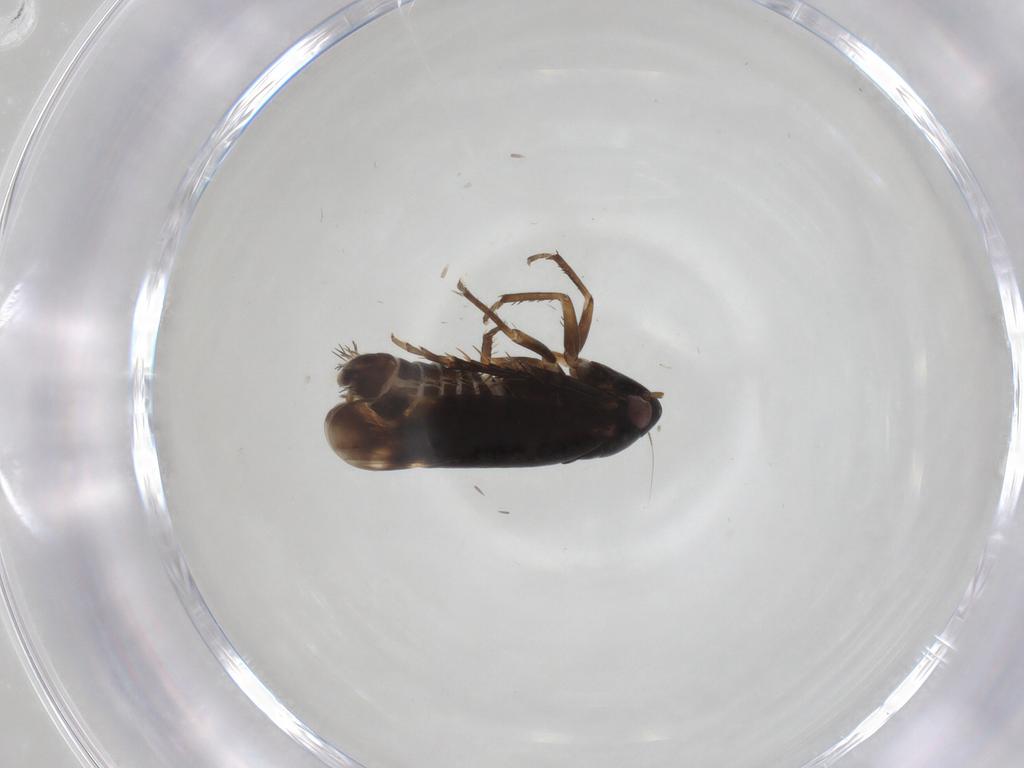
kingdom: Animalia
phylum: Arthropoda
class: Insecta
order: Hemiptera
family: Cicadellidae
